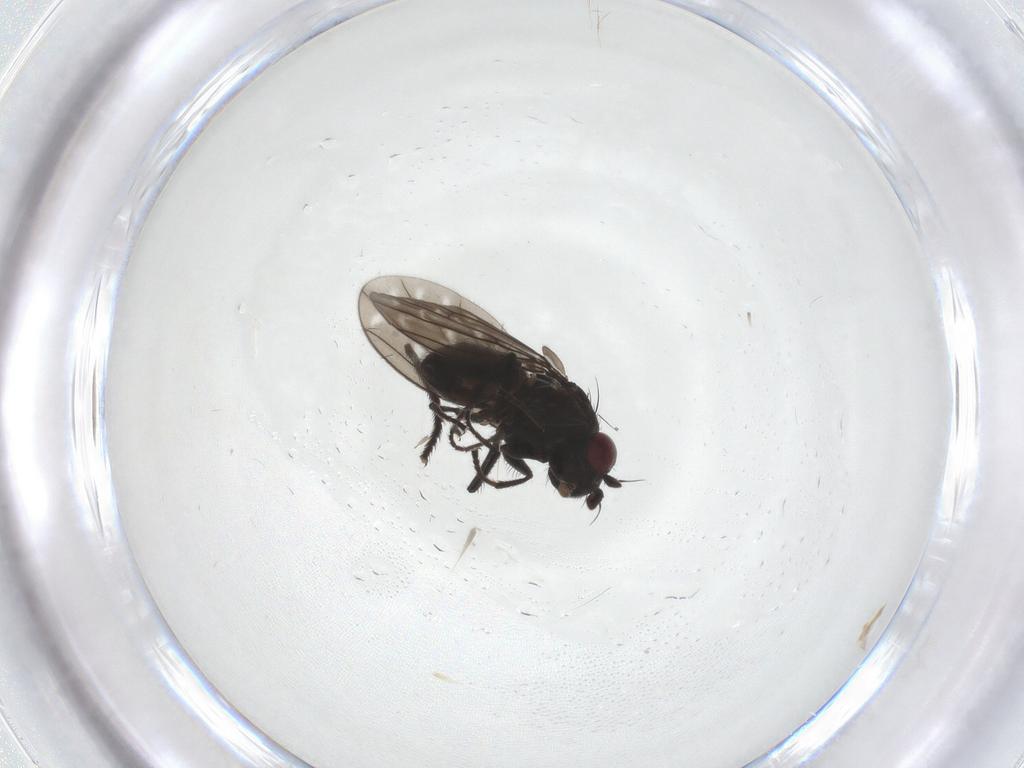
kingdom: Animalia
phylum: Arthropoda
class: Insecta
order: Diptera
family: Ephydridae
